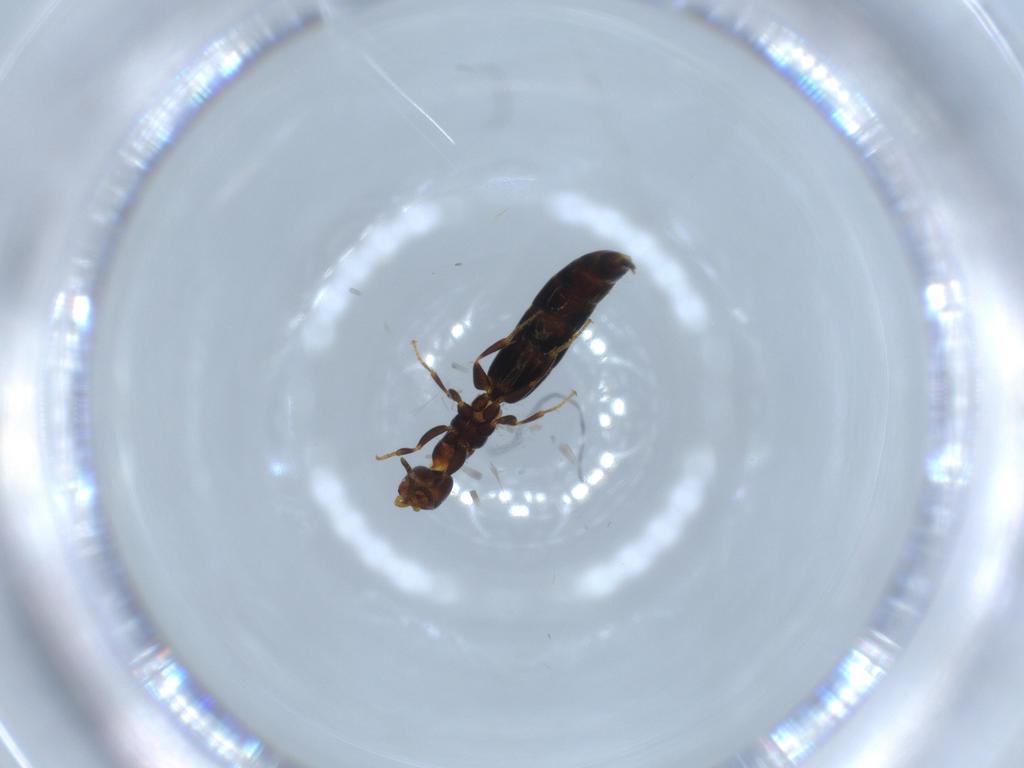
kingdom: Animalia
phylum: Arthropoda
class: Insecta
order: Hymenoptera
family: Bethylidae
